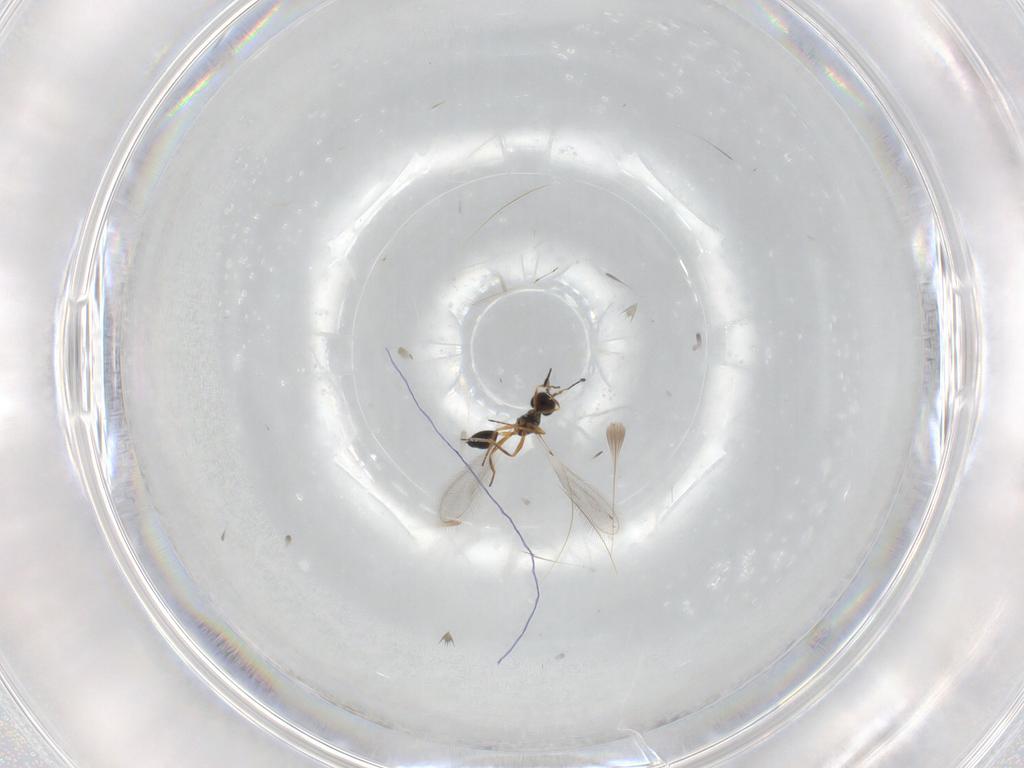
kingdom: Animalia
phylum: Arthropoda
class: Insecta
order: Hymenoptera
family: Mymaridae
